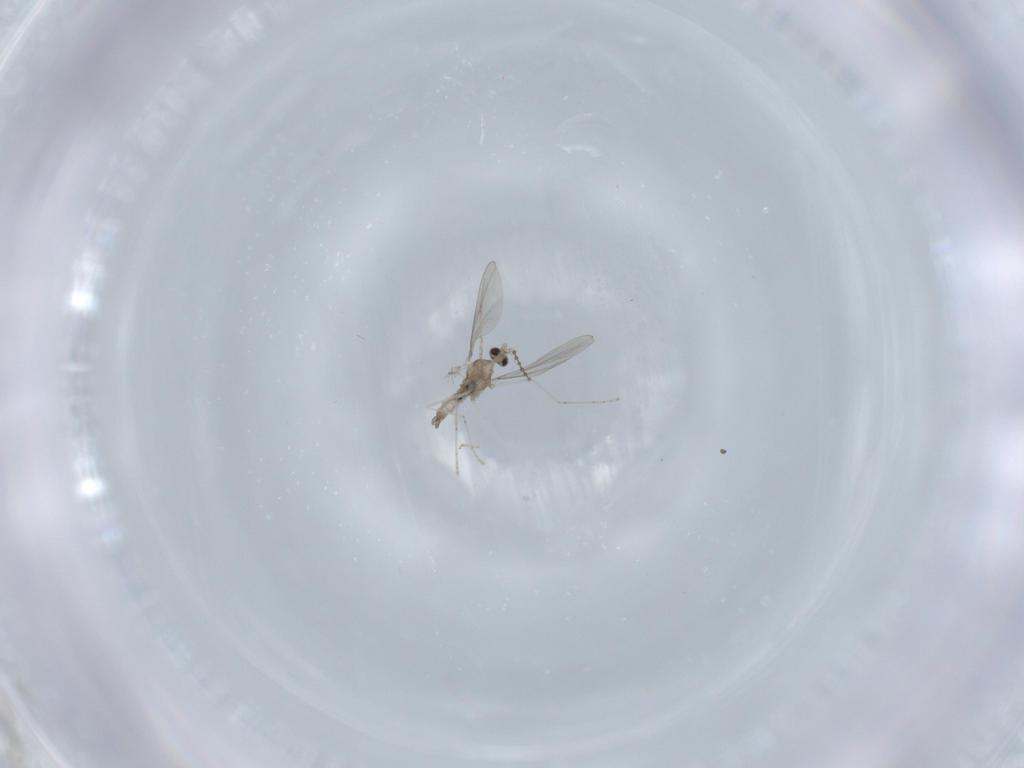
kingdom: Animalia
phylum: Arthropoda
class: Insecta
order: Diptera
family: Sciaridae
